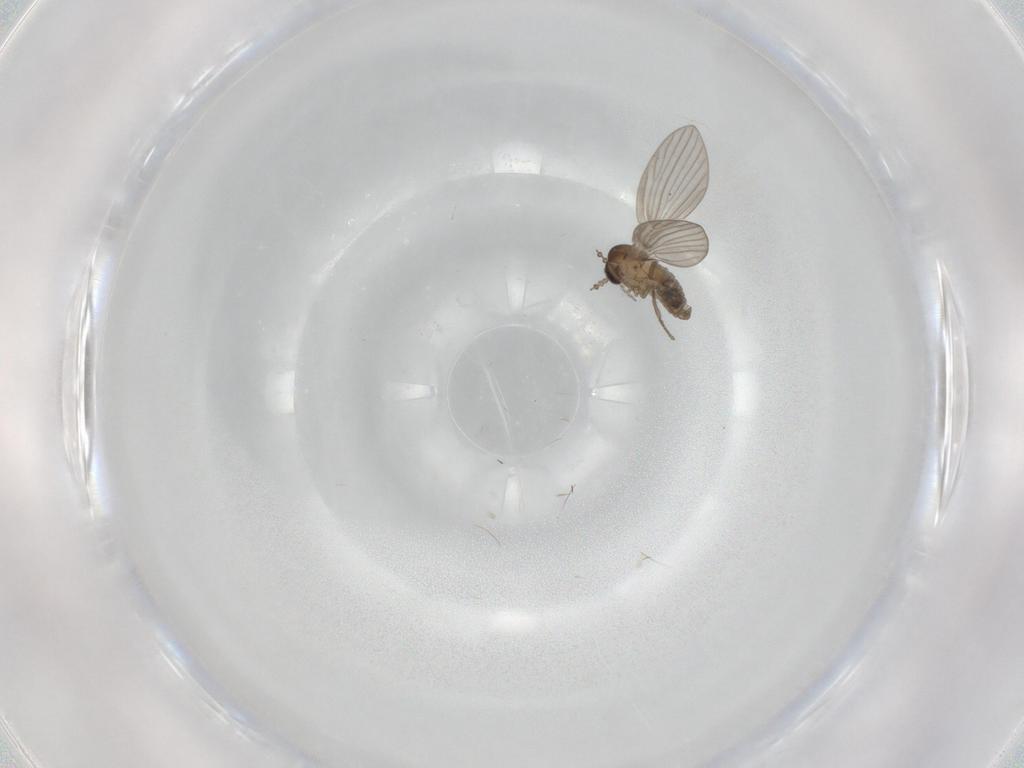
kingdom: Animalia
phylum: Arthropoda
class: Insecta
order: Diptera
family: Psychodidae
